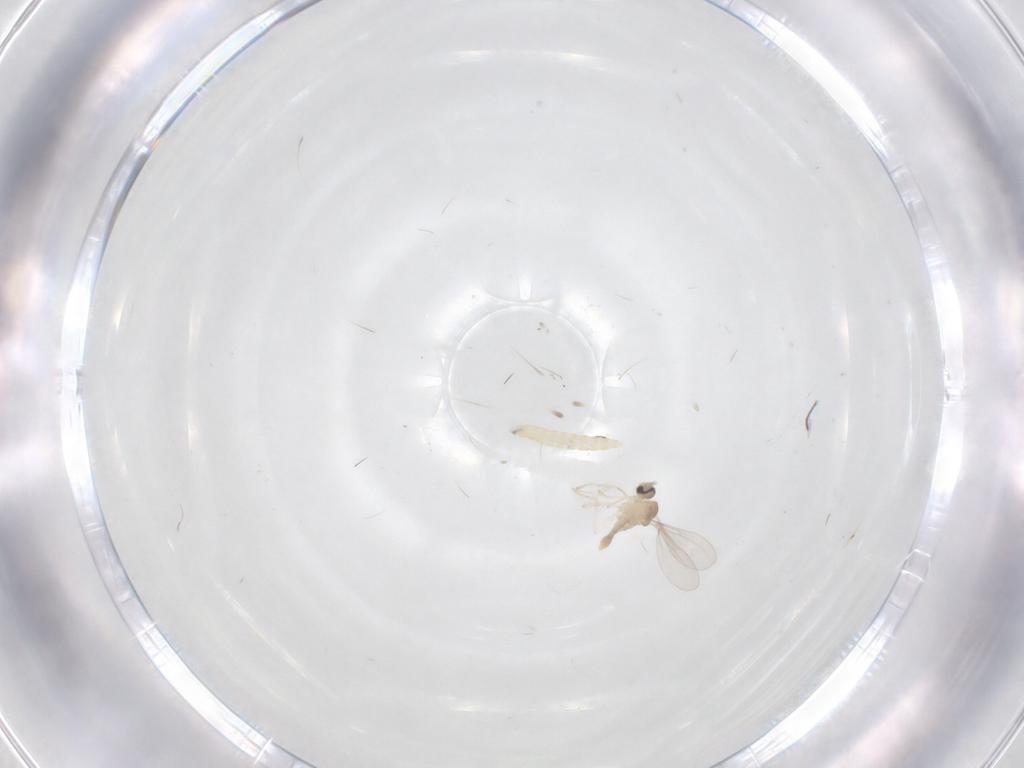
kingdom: Animalia
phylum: Arthropoda
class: Insecta
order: Diptera
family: Cecidomyiidae
